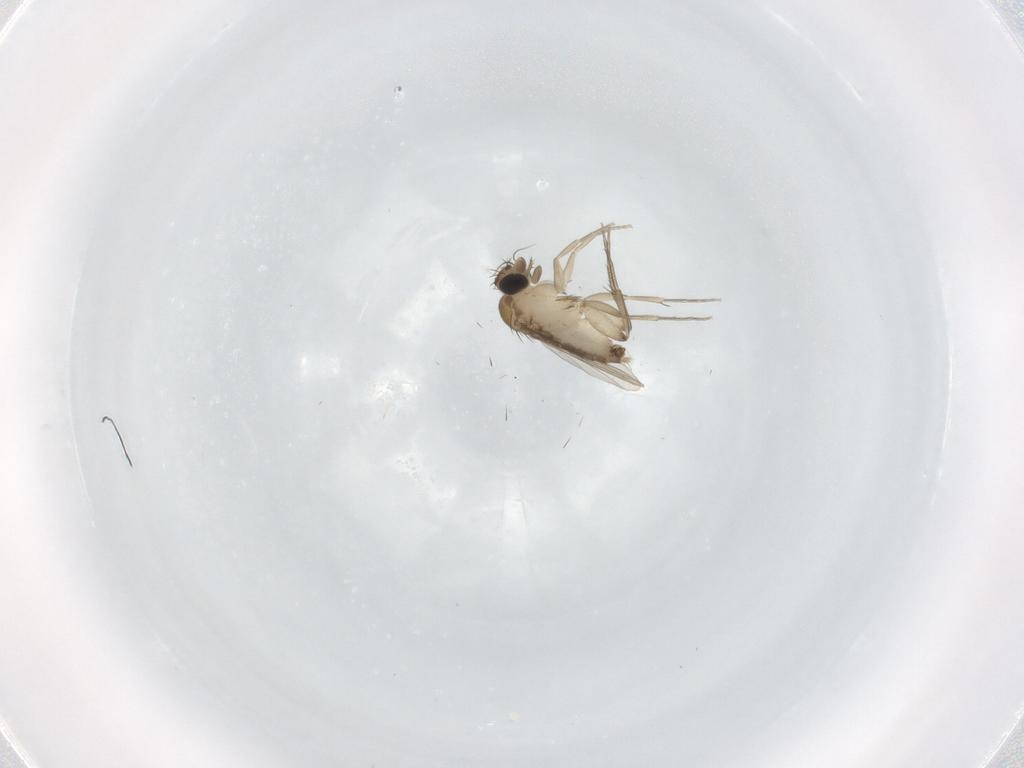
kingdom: Animalia
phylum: Arthropoda
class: Insecta
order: Diptera
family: Phoridae
